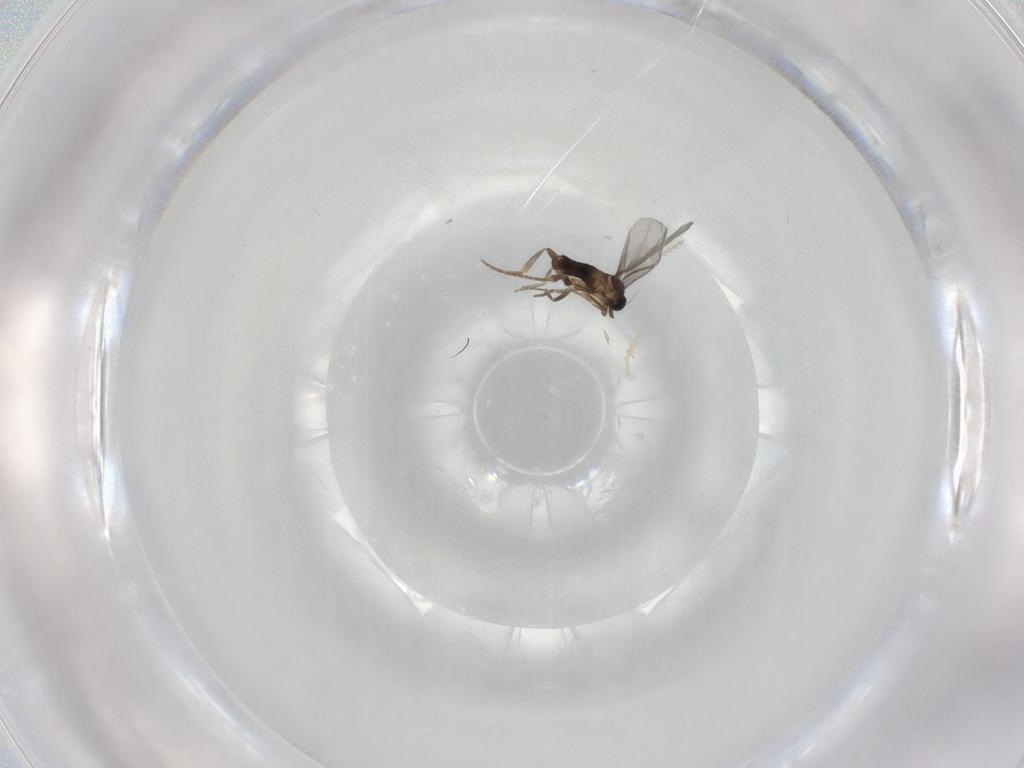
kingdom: Animalia
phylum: Arthropoda
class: Insecta
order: Diptera
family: Cecidomyiidae
